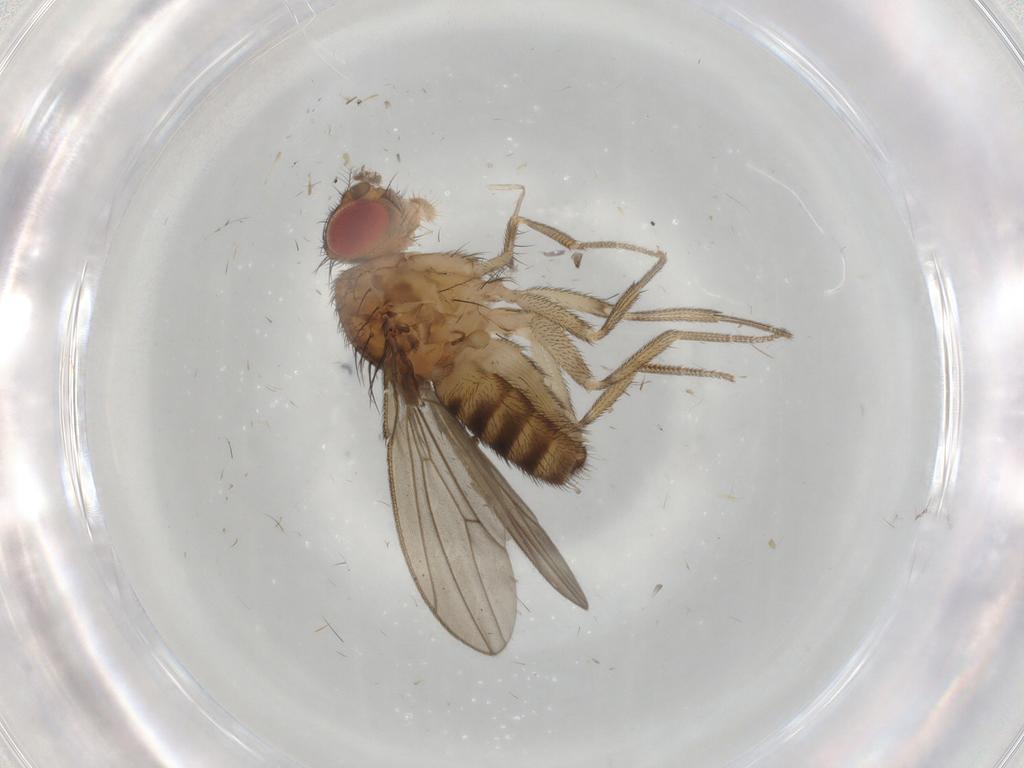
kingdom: Animalia
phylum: Arthropoda
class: Insecta
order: Diptera
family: Drosophilidae
